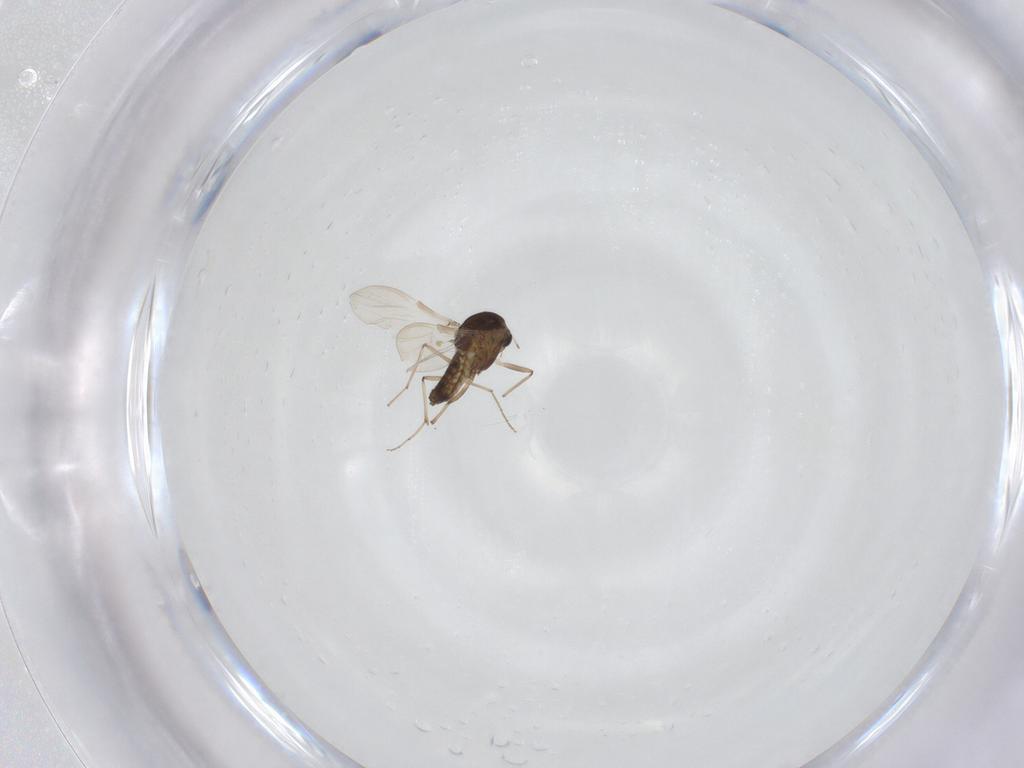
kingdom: Animalia
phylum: Arthropoda
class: Insecta
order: Diptera
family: Chironomidae
